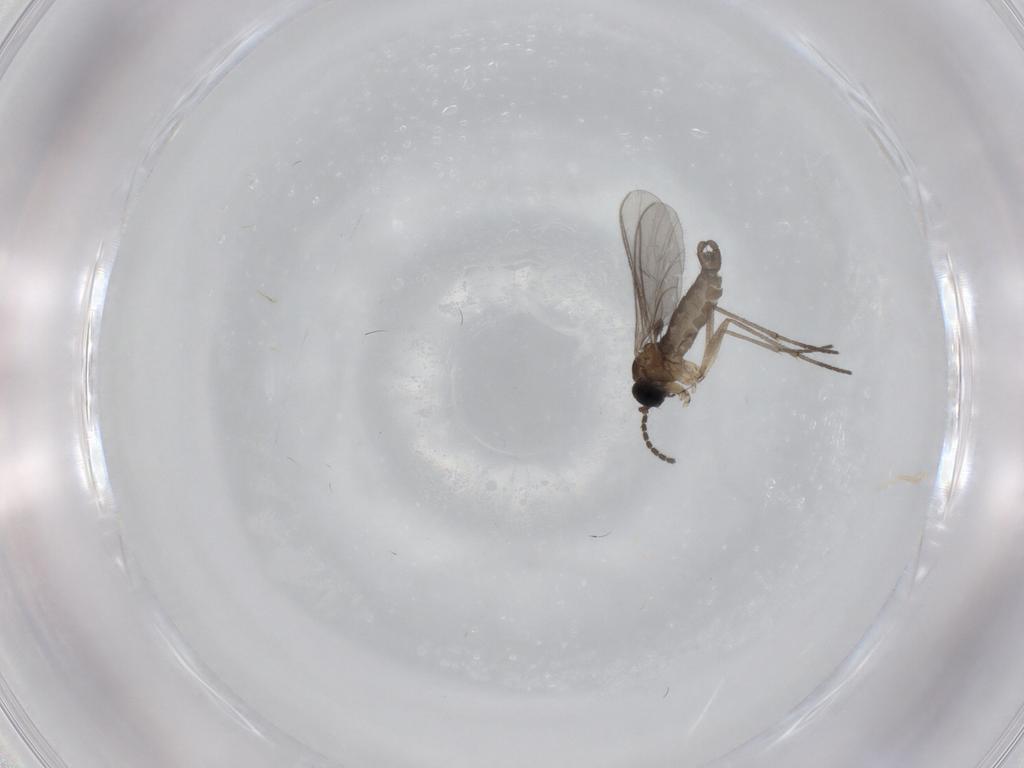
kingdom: Animalia
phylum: Arthropoda
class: Insecta
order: Diptera
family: Sciaridae
